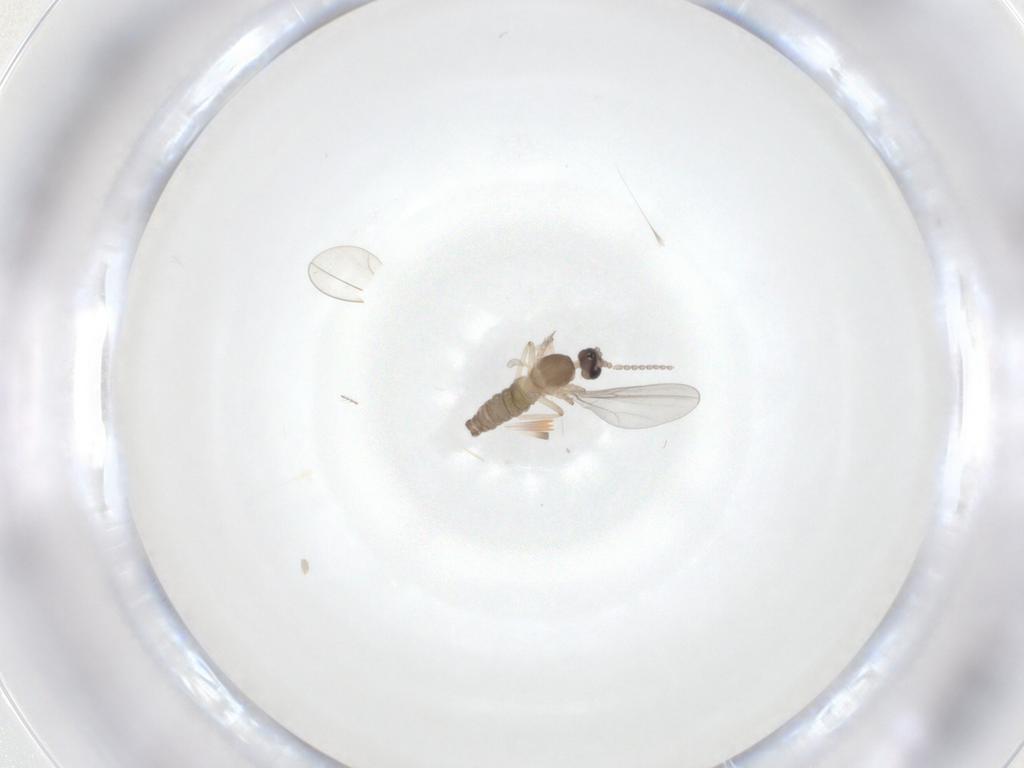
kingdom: Animalia
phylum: Arthropoda
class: Insecta
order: Diptera
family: Cecidomyiidae
